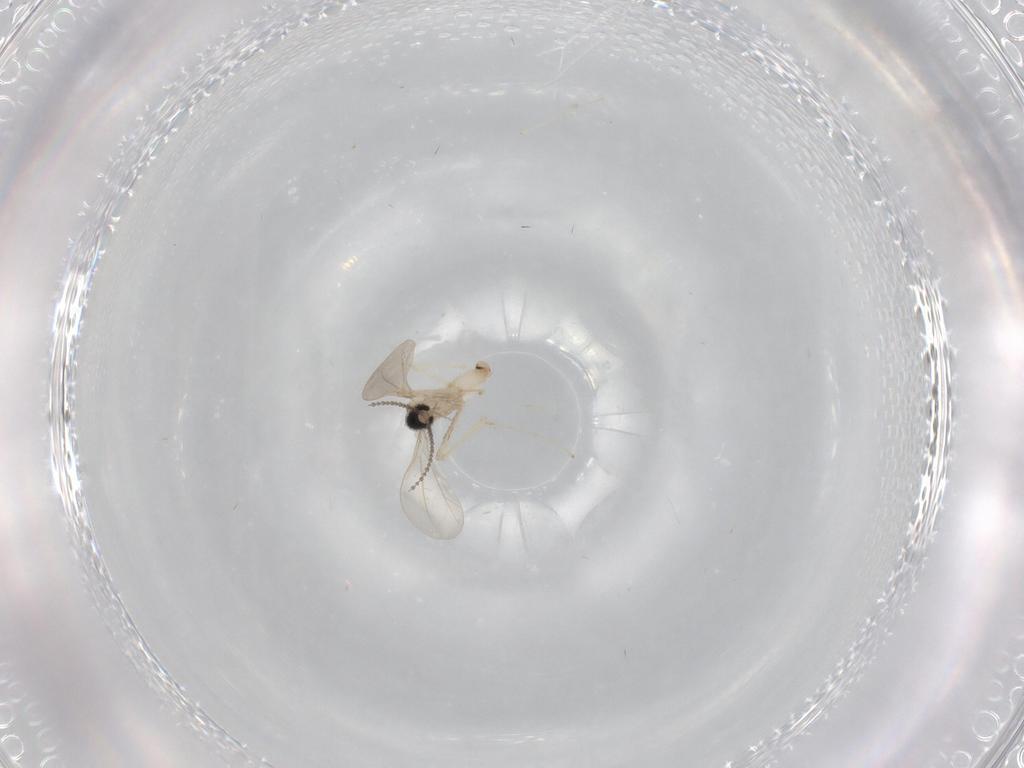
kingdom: Animalia
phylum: Arthropoda
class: Insecta
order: Diptera
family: Cecidomyiidae
